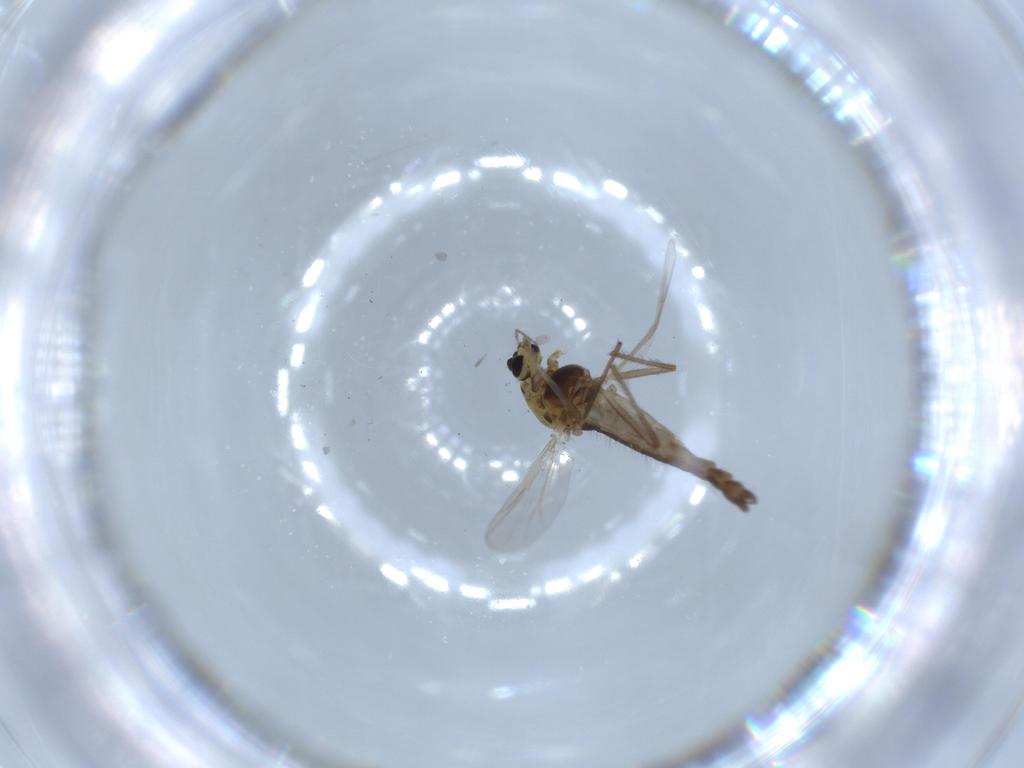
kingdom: Animalia
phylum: Arthropoda
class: Insecta
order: Diptera
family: Chironomidae
